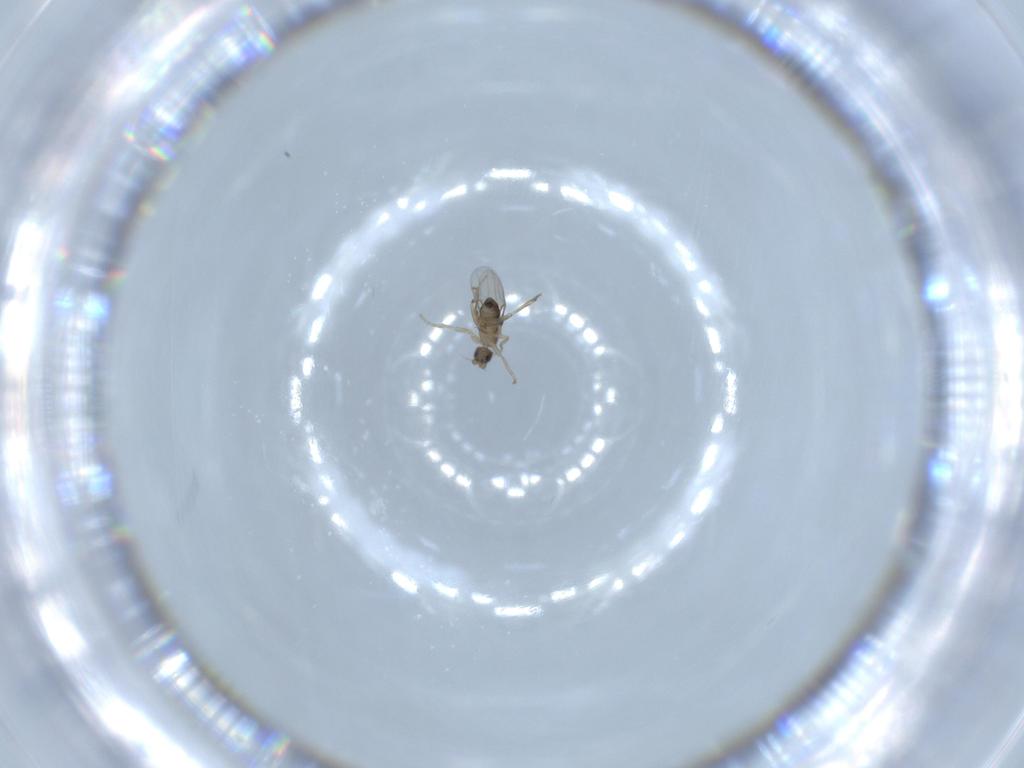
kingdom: Animalia
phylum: Arthropoda
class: Insecta
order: Diptera
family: Phoridae
